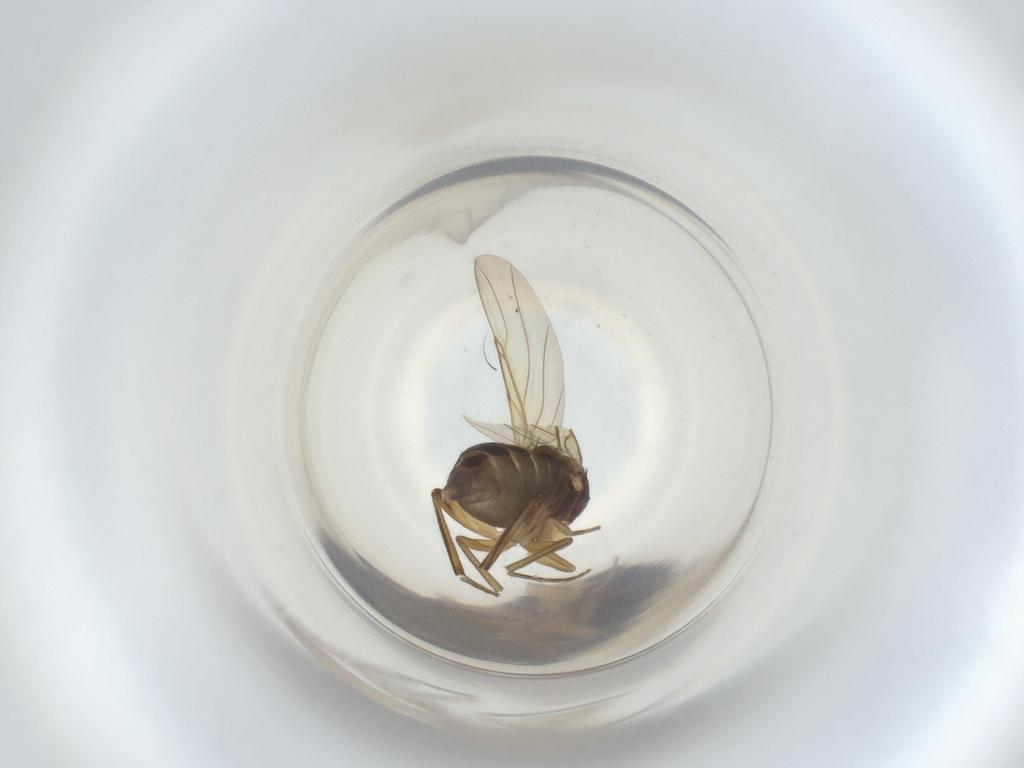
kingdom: Animalia
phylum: Arthropoda
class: Insecta
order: Diptera
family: Phoridae
